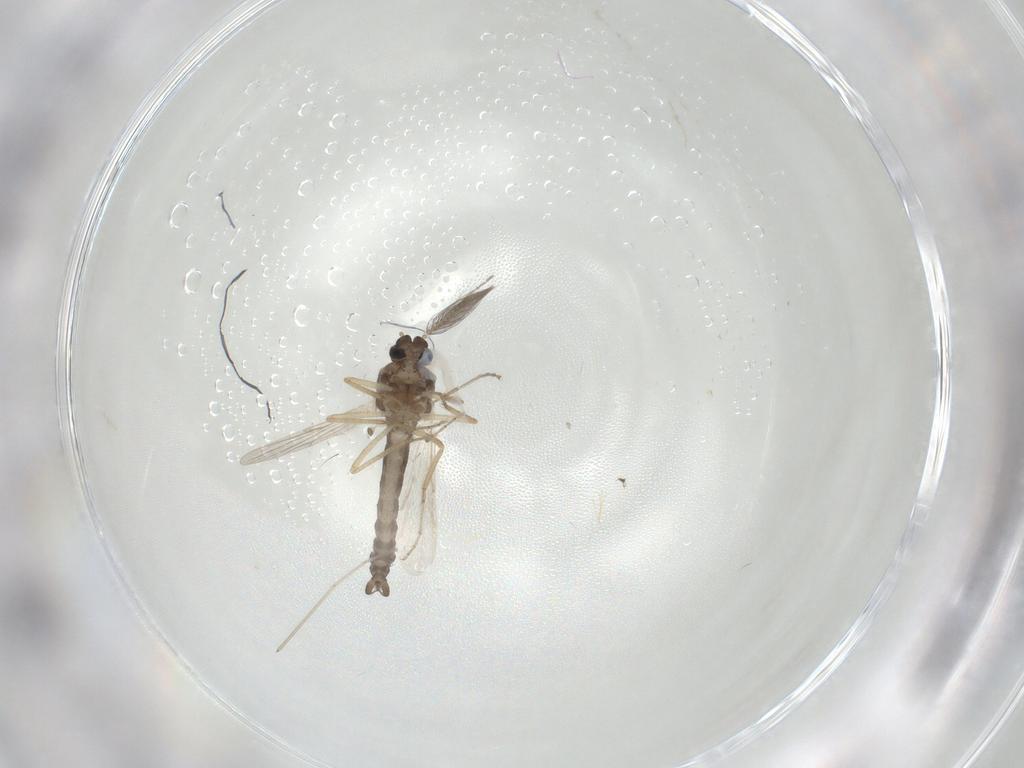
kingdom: Animalia
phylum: Arthropoda
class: Insecta
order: Diptera
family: Ceratopogonidae
